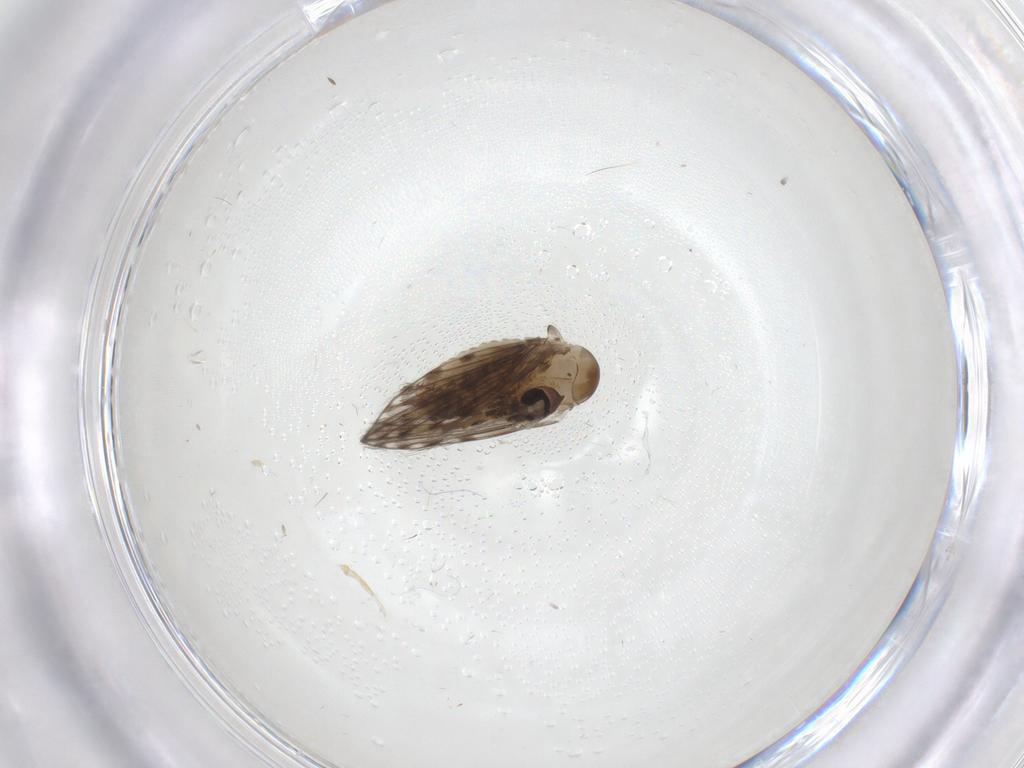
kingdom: Animalia
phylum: Arthropoda
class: Insecta
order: Diptera
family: Psychodidae
